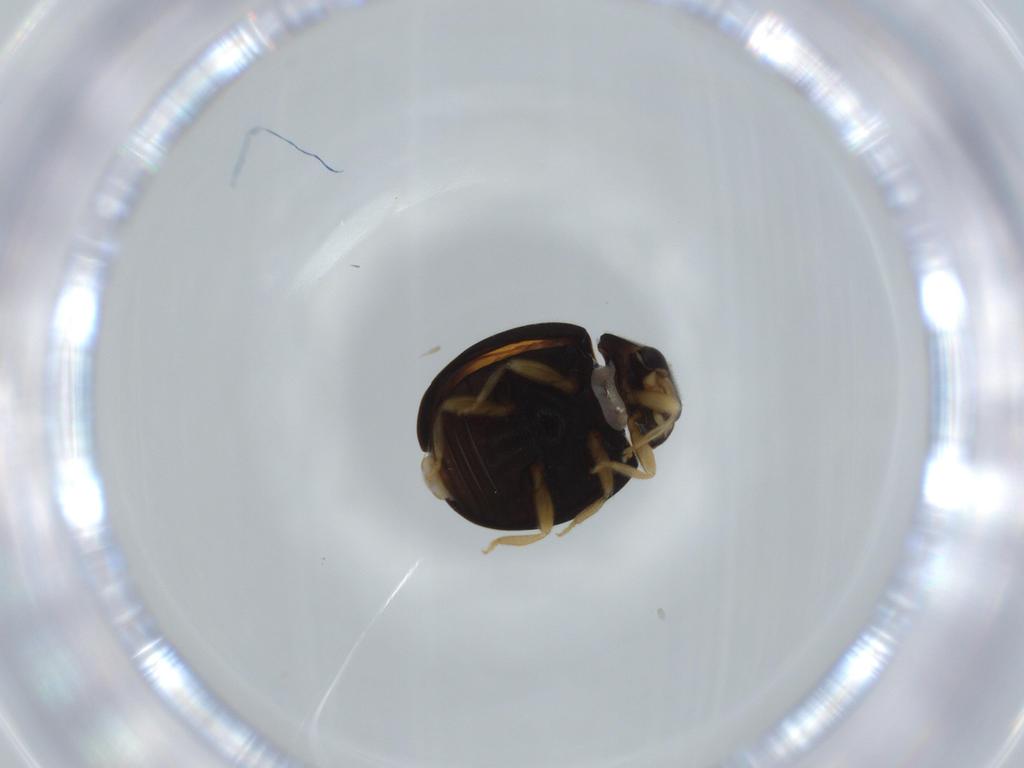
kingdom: Animalia
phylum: Arthropoda
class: Insecta
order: Coleoptera
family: Coccinellidae
